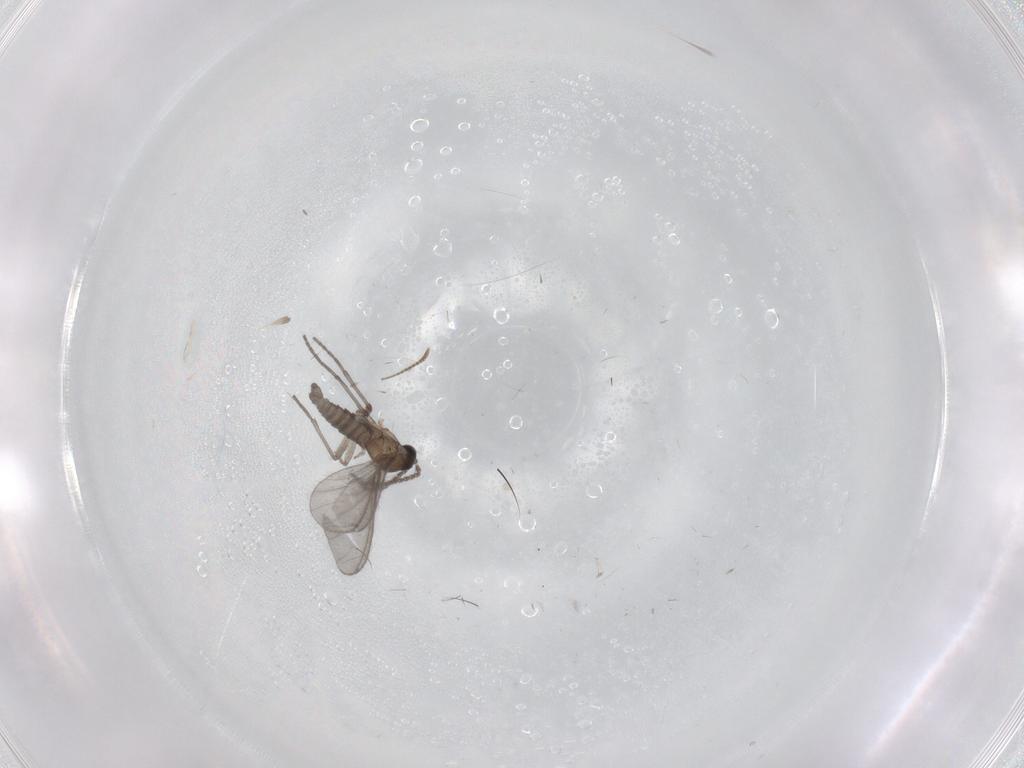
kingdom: Animalia
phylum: Arthropoda
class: Insecta
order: Diptera
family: Sciaridae
